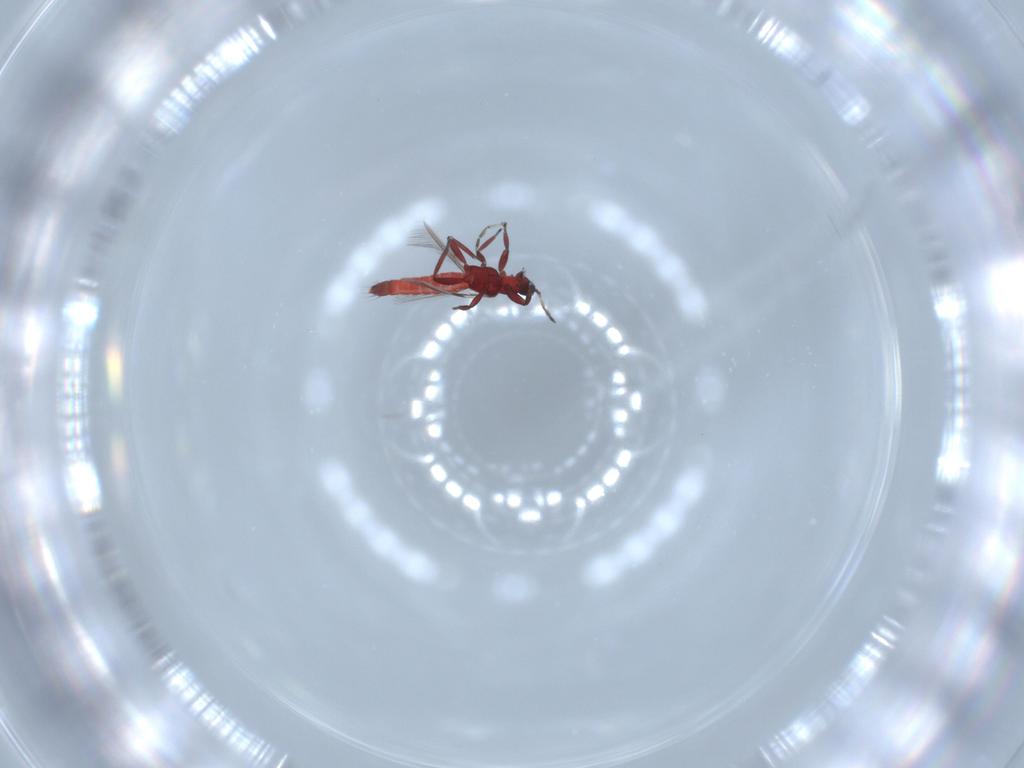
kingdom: Animalia
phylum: Arthropoda
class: Insecta
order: Thysanoptera
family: Aeolothripidae
